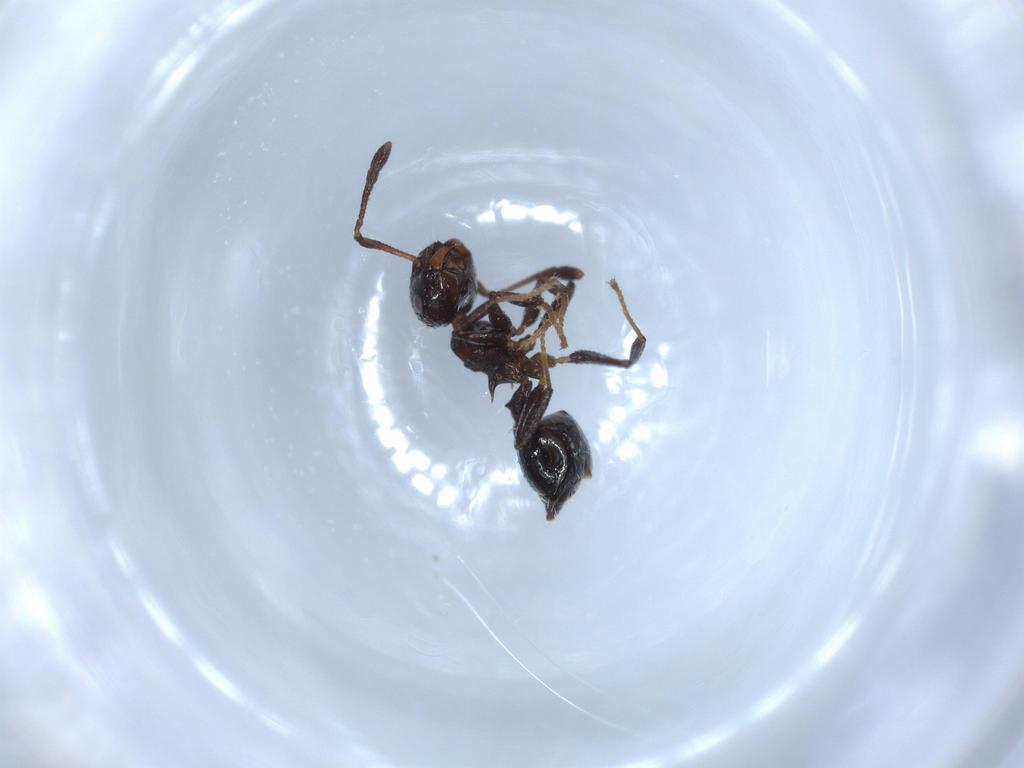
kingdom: Animalia
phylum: Arthropoda
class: Insecta
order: Hymenoptera
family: Formicidae
